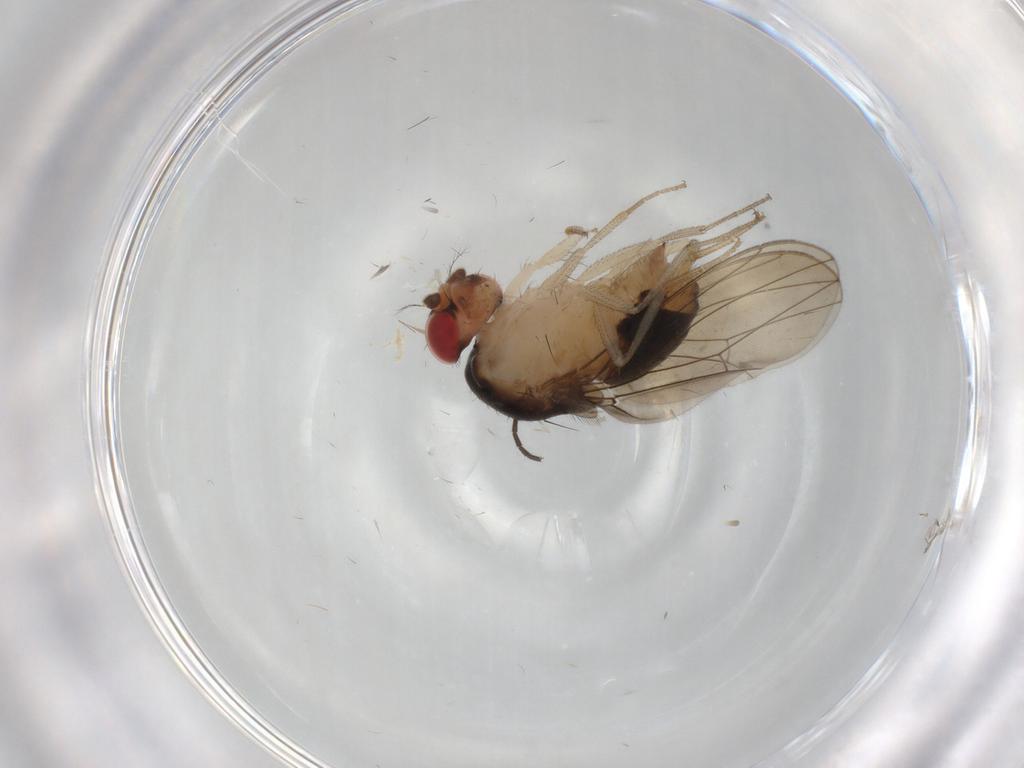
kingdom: Animalia
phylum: Arthropoda
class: Insecta
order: Diptera
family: Drosophilidae
